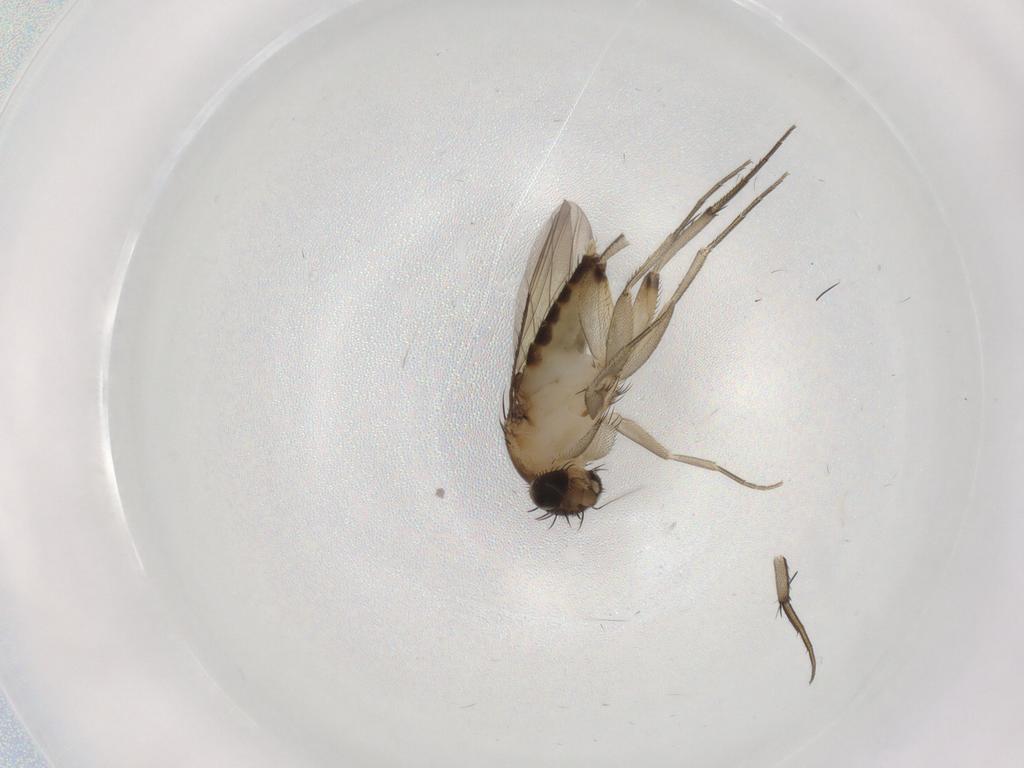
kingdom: Animalia
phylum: Arthropoda
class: Insecta
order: Diptera
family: Phoridae
